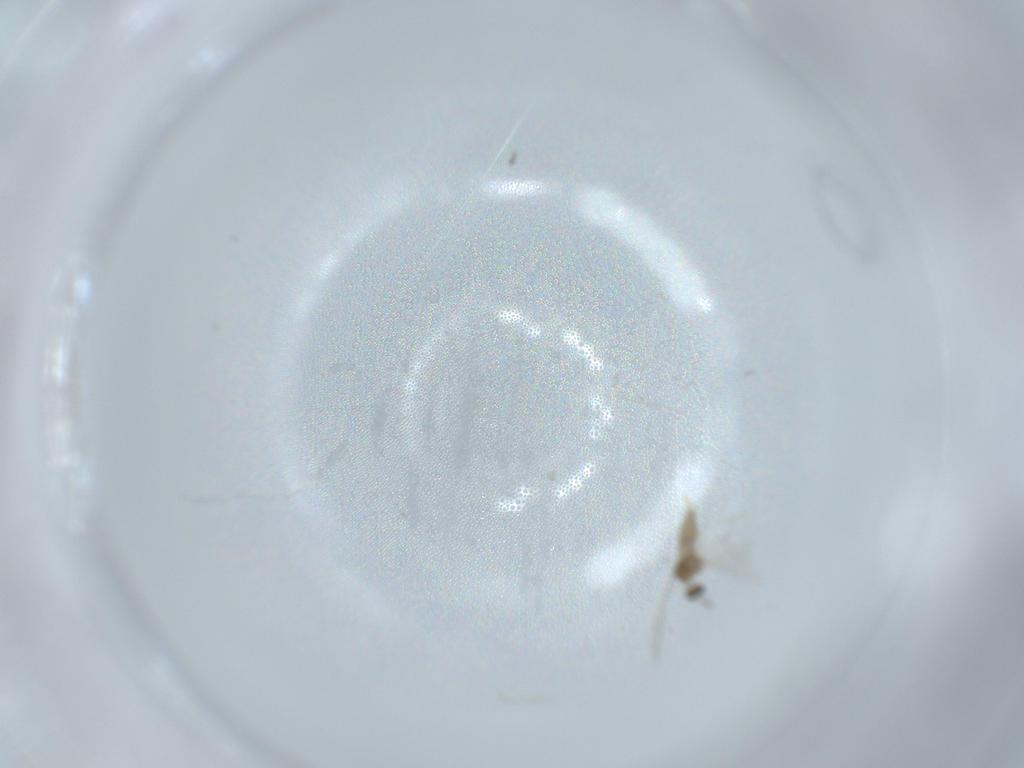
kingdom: Animalia
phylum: Arthropoda
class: Insecta
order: Diptera
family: Cecidomyiidae
